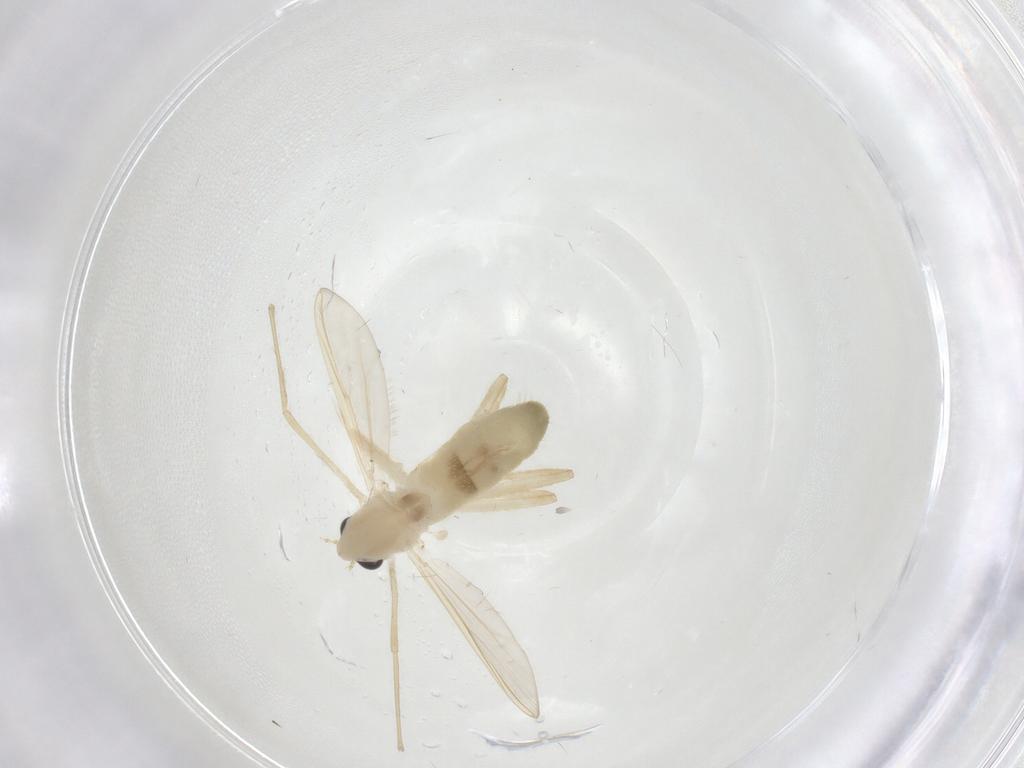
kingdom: Animalia
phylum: Arthropoda
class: Insecta
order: Diptera
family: Chironomidae
